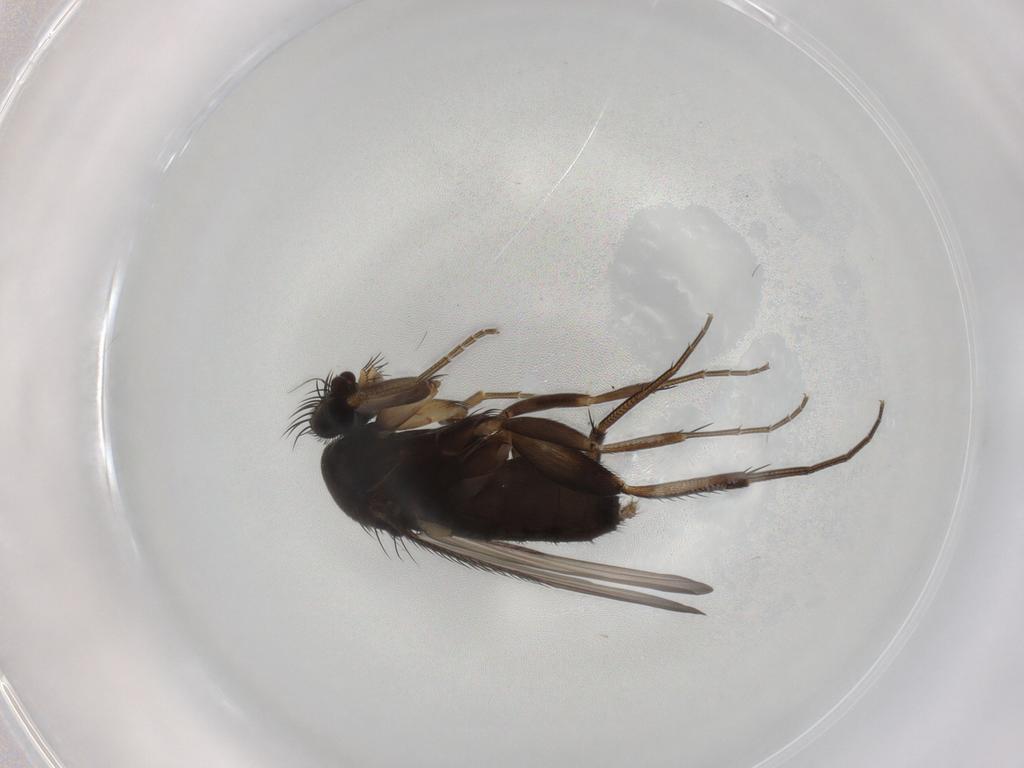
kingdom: Animalia
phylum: Arthropoda
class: Insecta
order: Diptera
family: Phoridae
